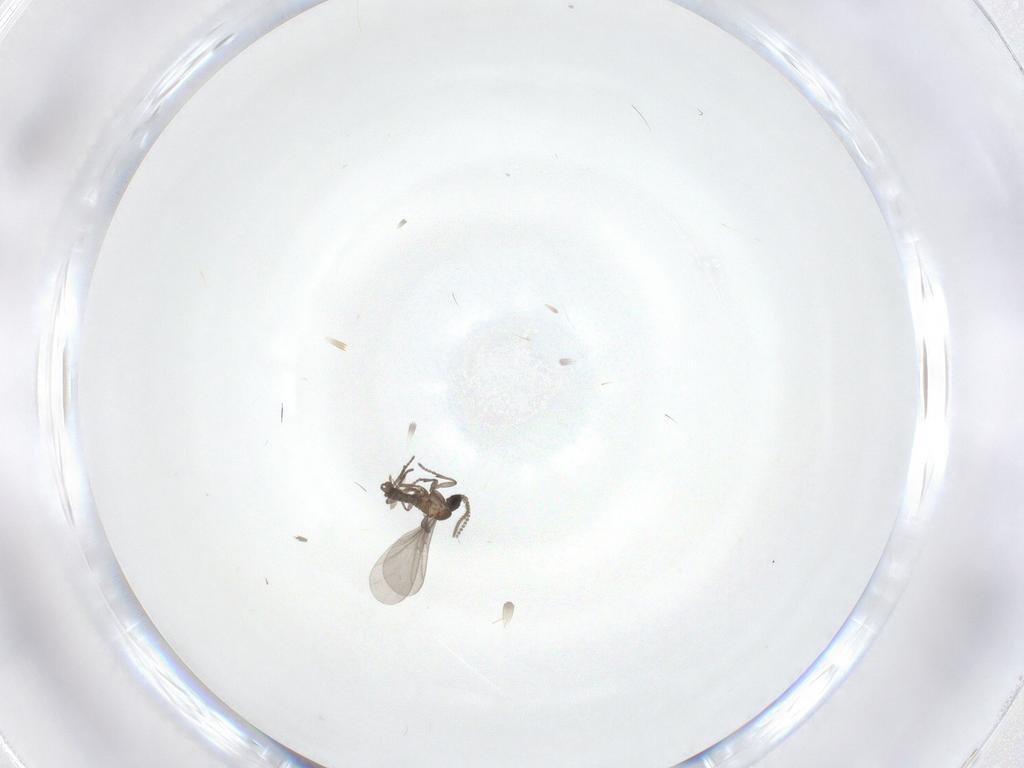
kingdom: Animalia
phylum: Arthropoda
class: Insecta
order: Diptera
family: Sciaridae
